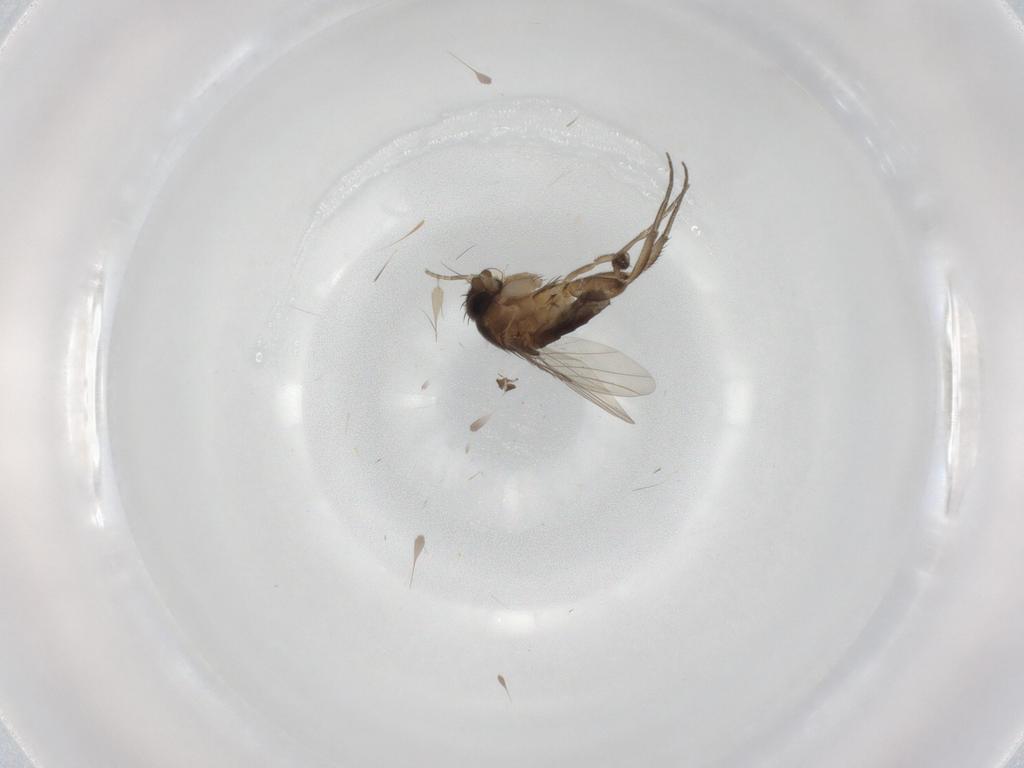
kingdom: Animalia
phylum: Arthropoda
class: Insecta
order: Diptera
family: Phoridae
